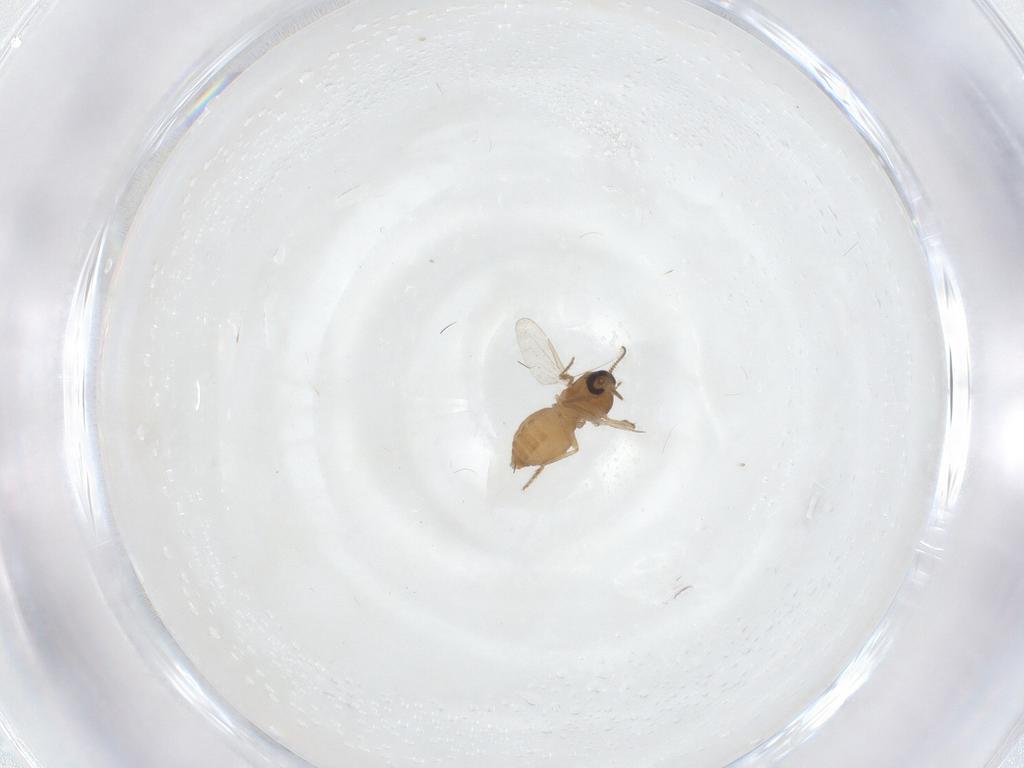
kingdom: Animalia
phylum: Arthropoda
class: Insecta
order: Diptera
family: Ceratopogonidae
